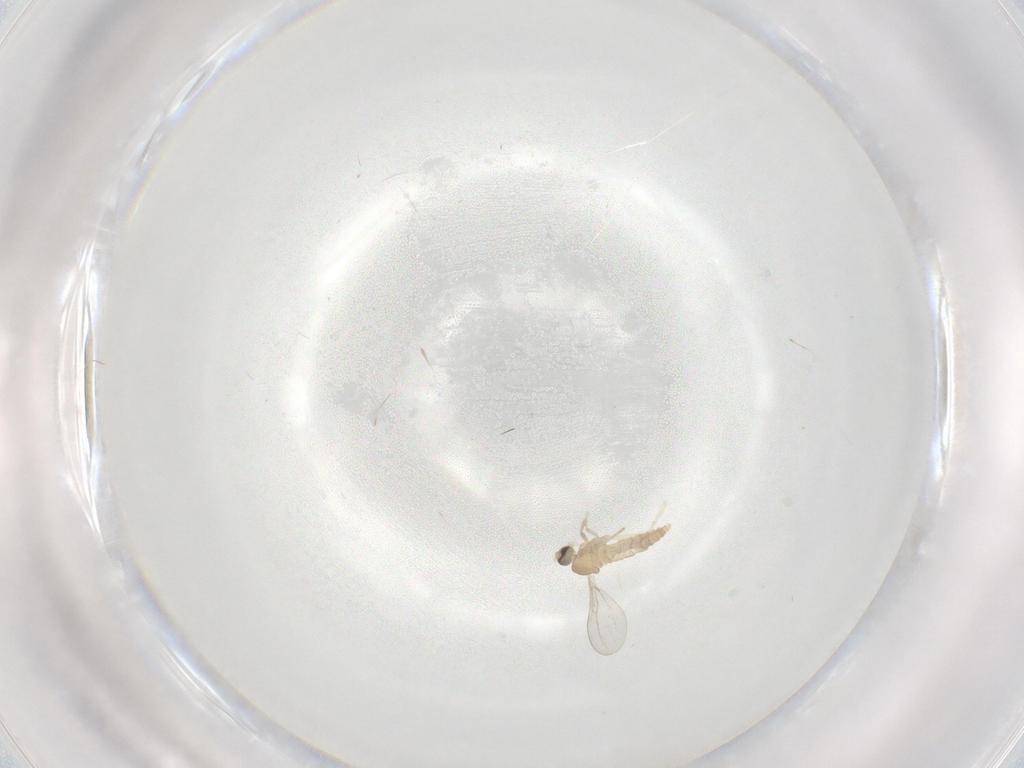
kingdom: Animalia
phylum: Arthropoda
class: Insecta
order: Diptera
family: Cecidomyiidae
